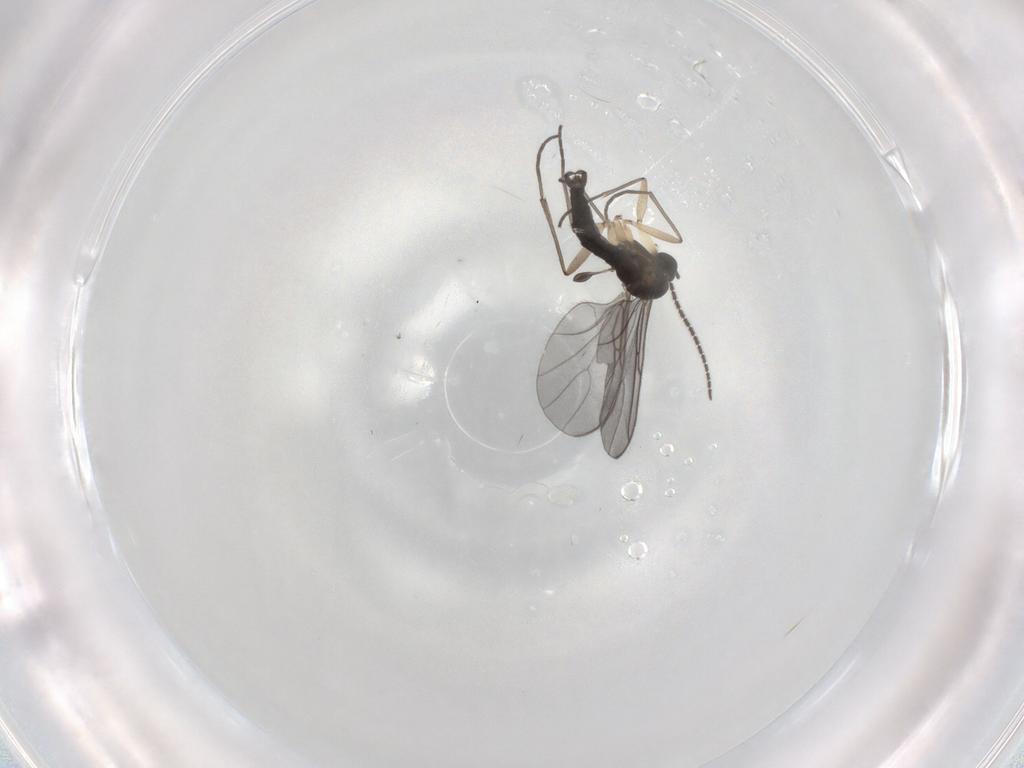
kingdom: Animalia
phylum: Arthropoda
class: Insecta
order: Diptera
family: Sciaridae
